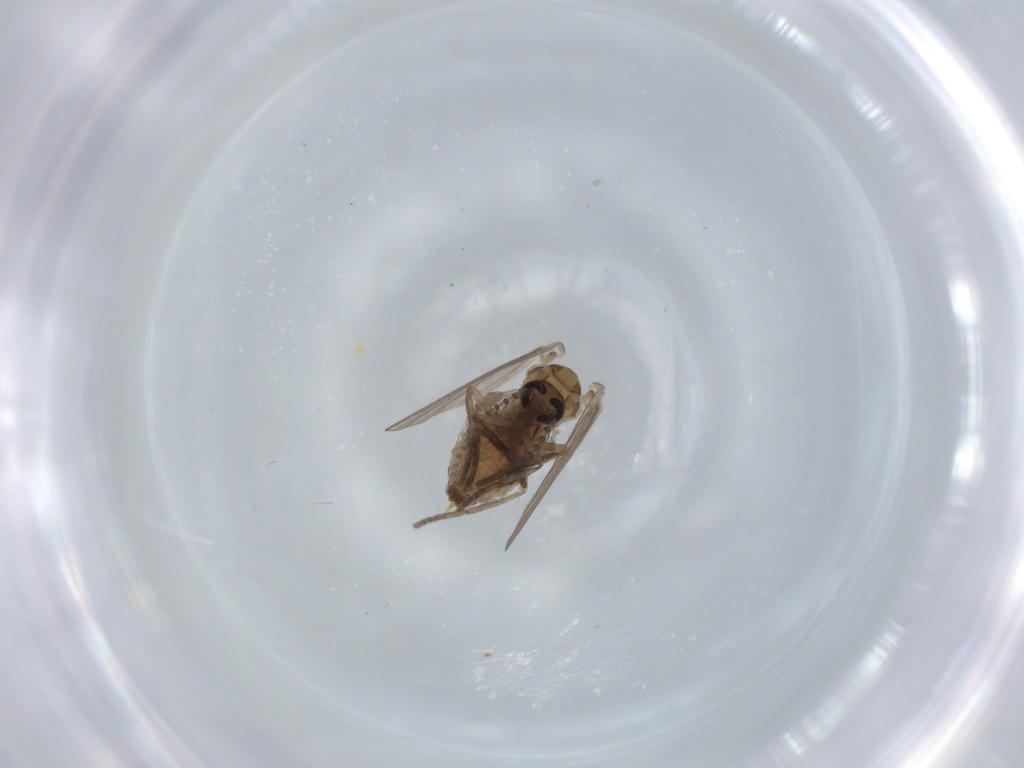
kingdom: Animalia
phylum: Arthropoda
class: Insecta
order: Diptera
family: Psychodidae
